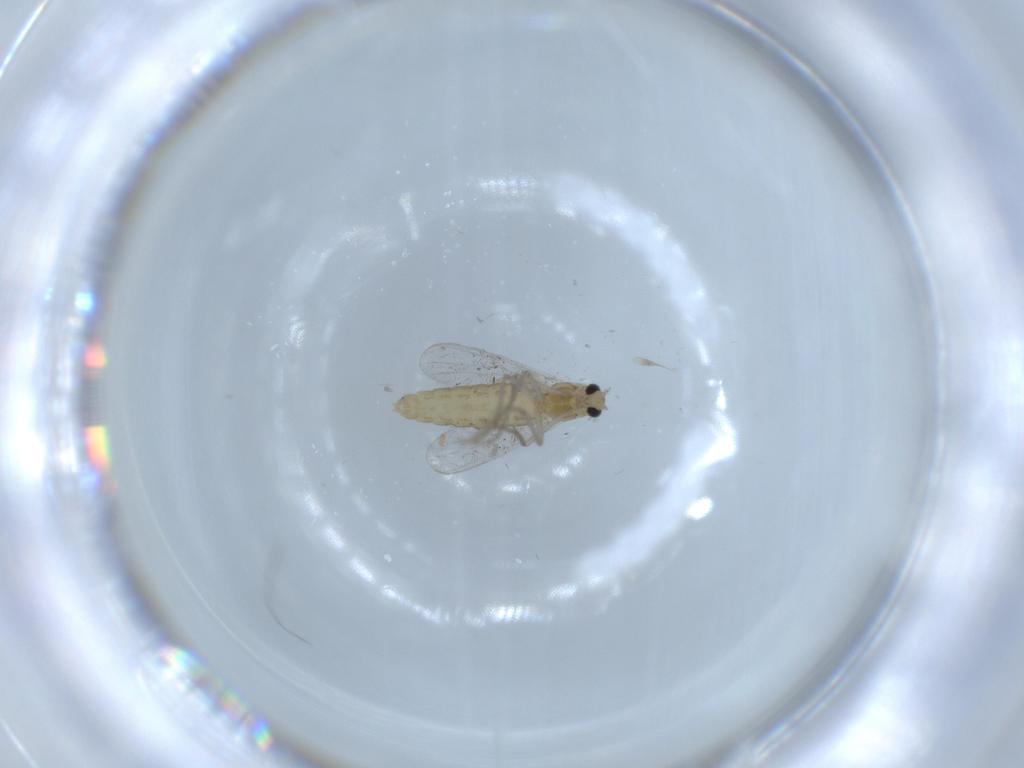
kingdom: Animalia
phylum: Arthropoda
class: Insecta
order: Diptera
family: Chironomidae
